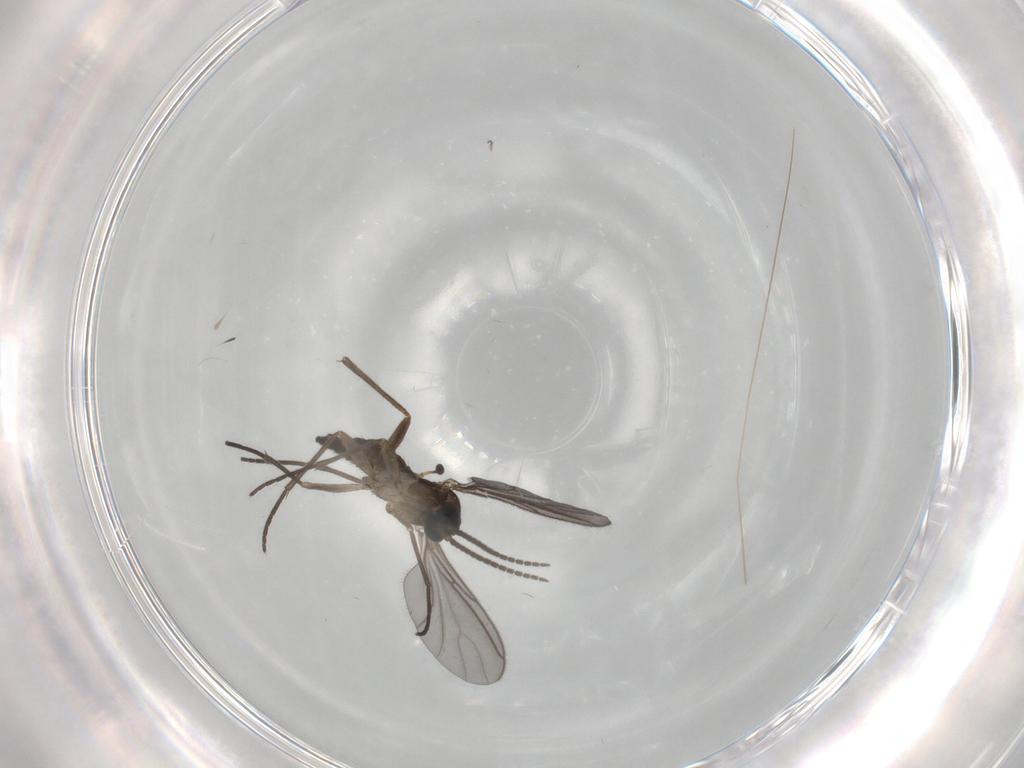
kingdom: Animalia
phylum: Arthropoda
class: Insecta
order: Diptera
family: Sciaridae
